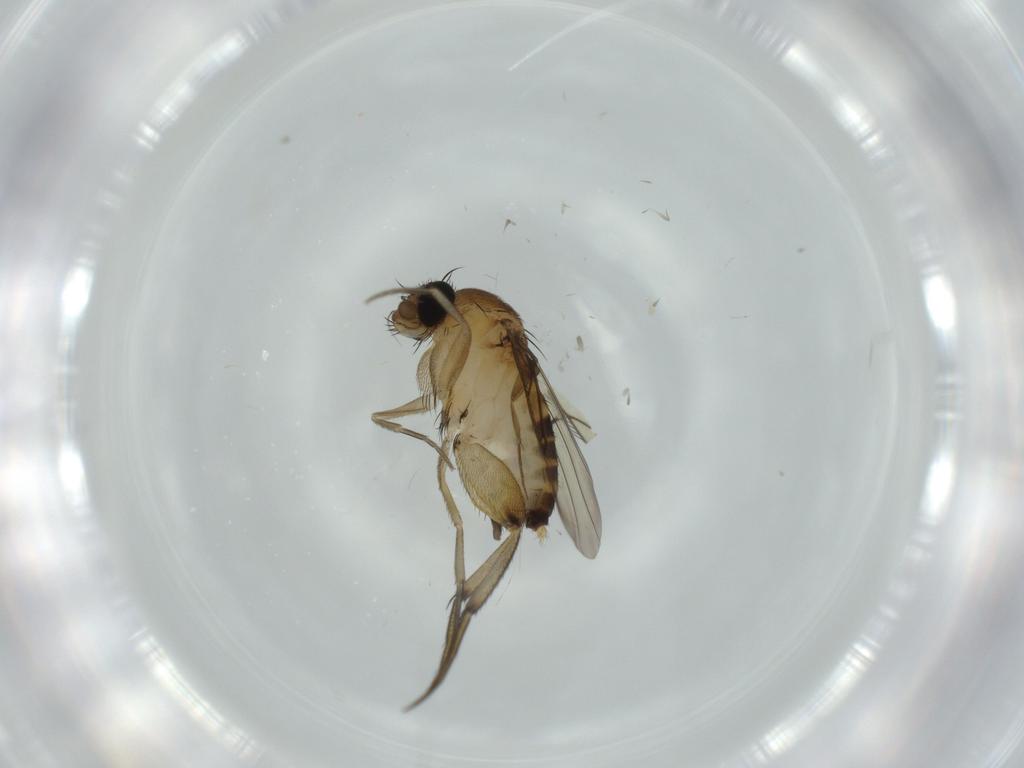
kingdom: Animalia
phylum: Arthropoda
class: Insecta
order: Diptera
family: Phoridae
